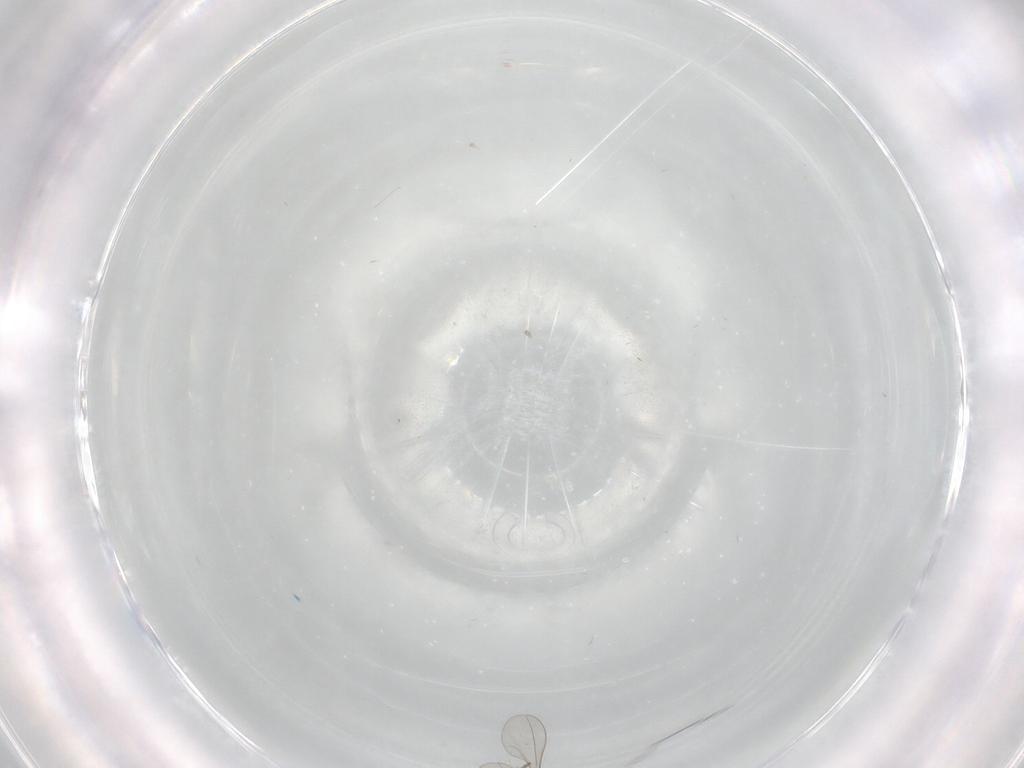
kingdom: Animalia
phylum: Arthropoda
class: Insecta
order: Diptera
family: Cecidomyiidae
